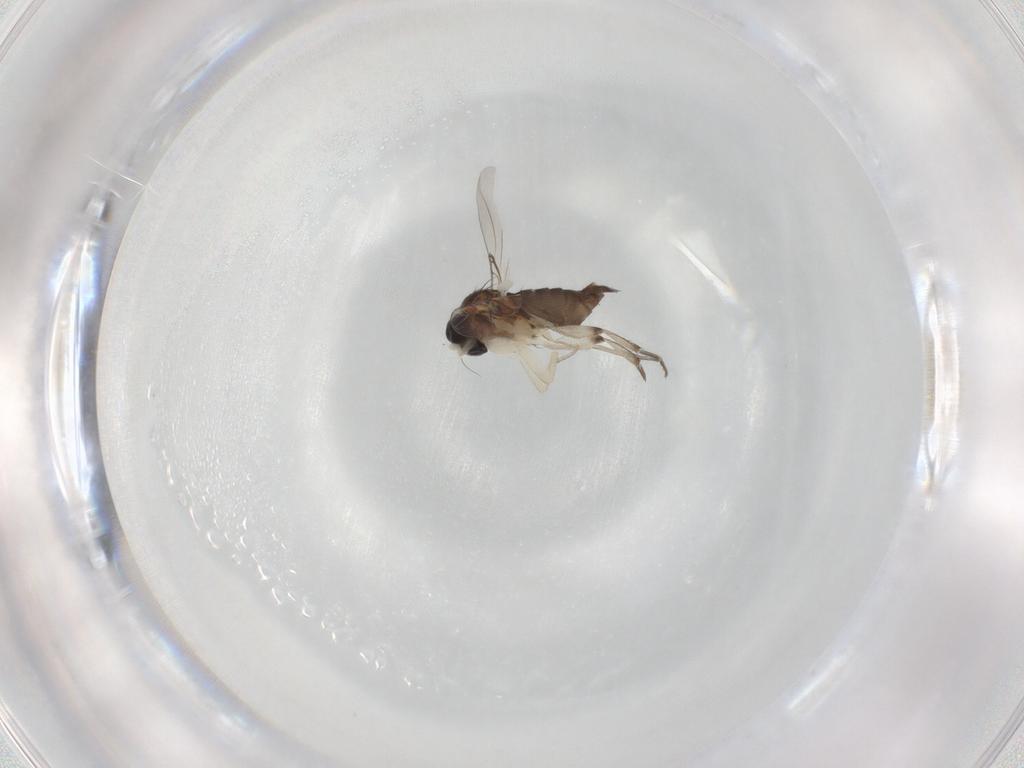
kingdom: Animalia
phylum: Arthropoda
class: Insecta
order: Diptera
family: Phoridae
